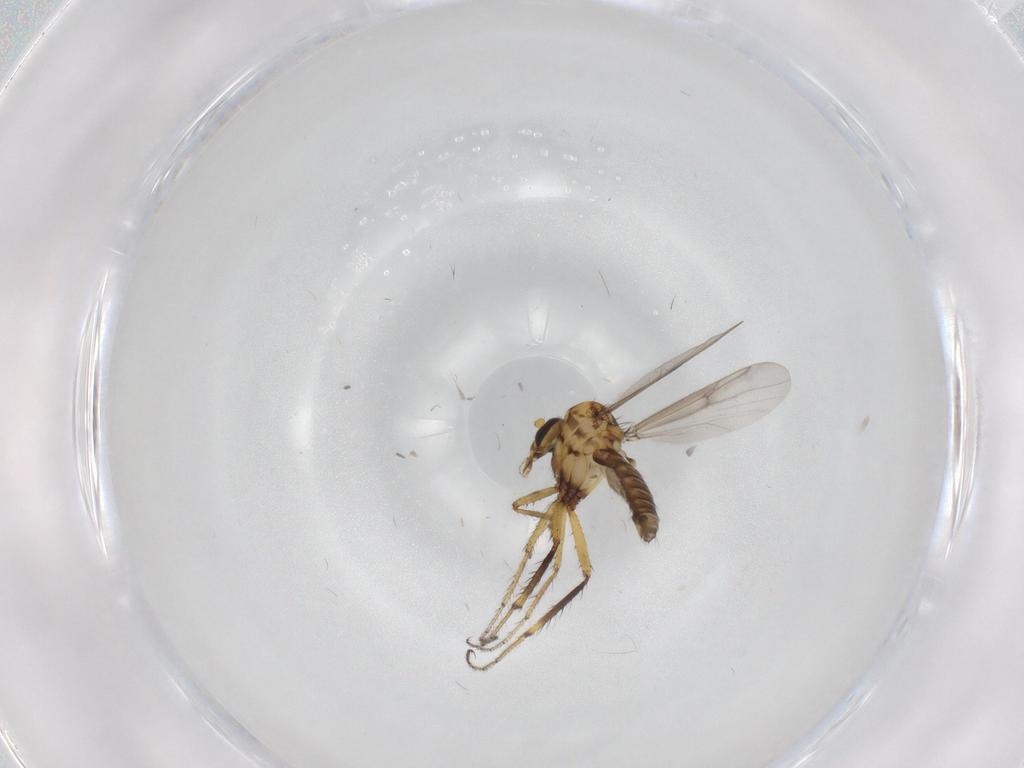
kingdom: Animalia
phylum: Arthropoda
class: Insecta
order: Diptera
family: Ceratopogonidae
